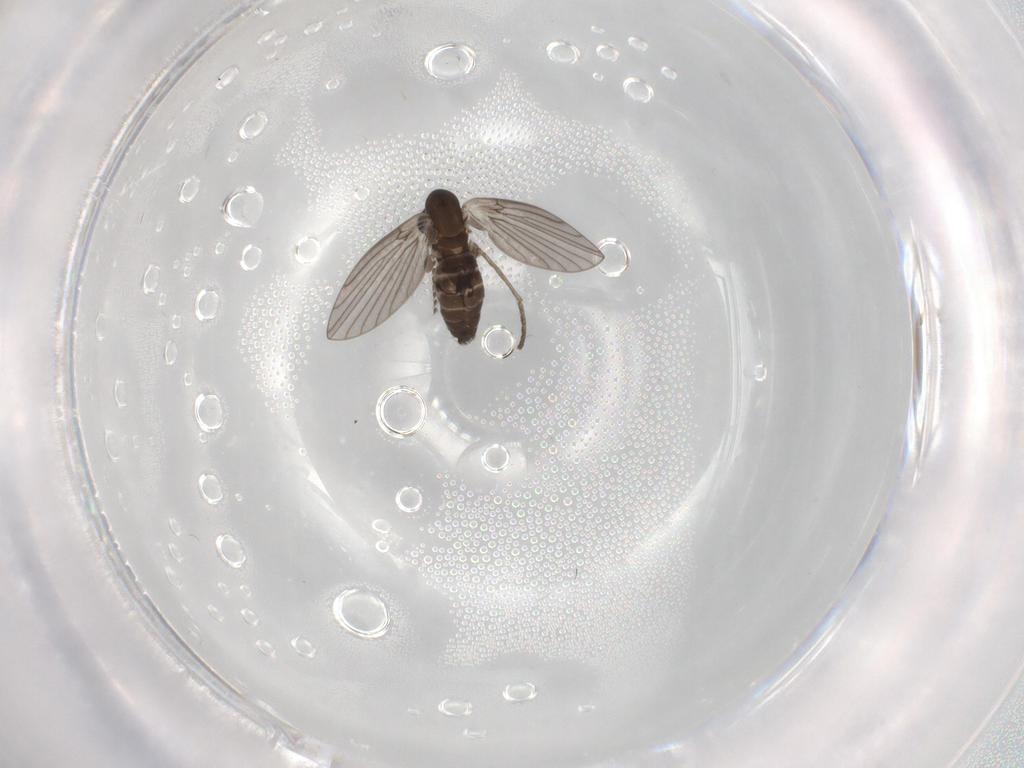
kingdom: Animalia
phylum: Arthropoda
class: Insecta
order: Diptera
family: Cecidomyiidae
